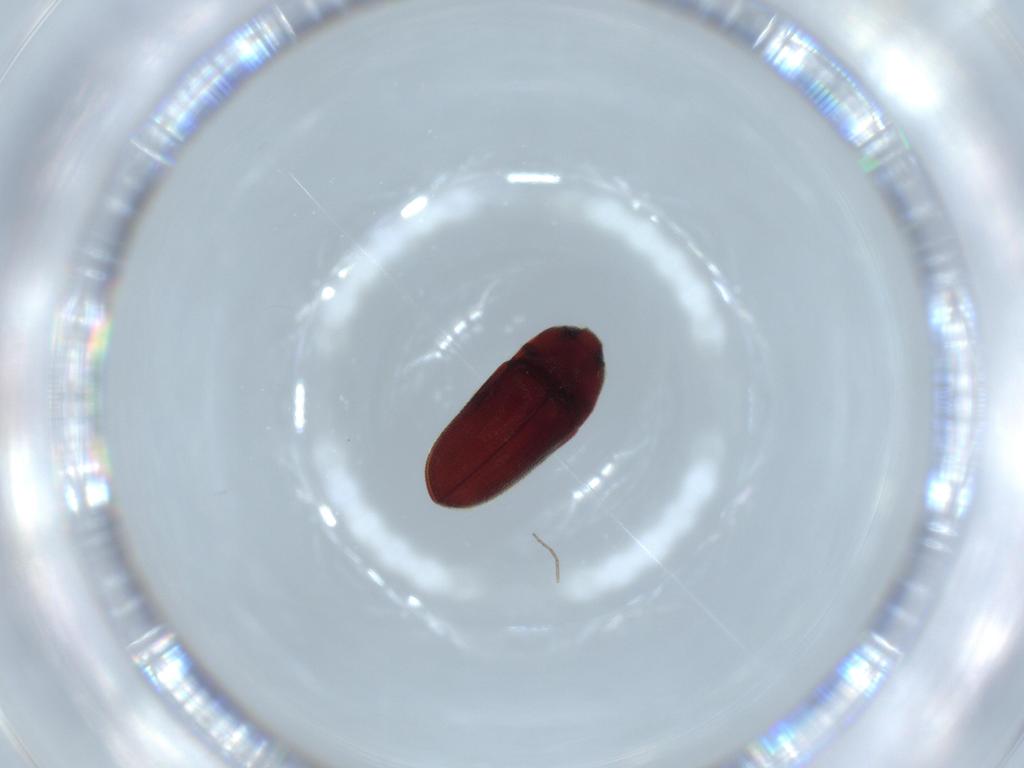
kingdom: Animalia
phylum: Arthropoda
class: Insecta
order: Coleoptera
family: Throscidae
